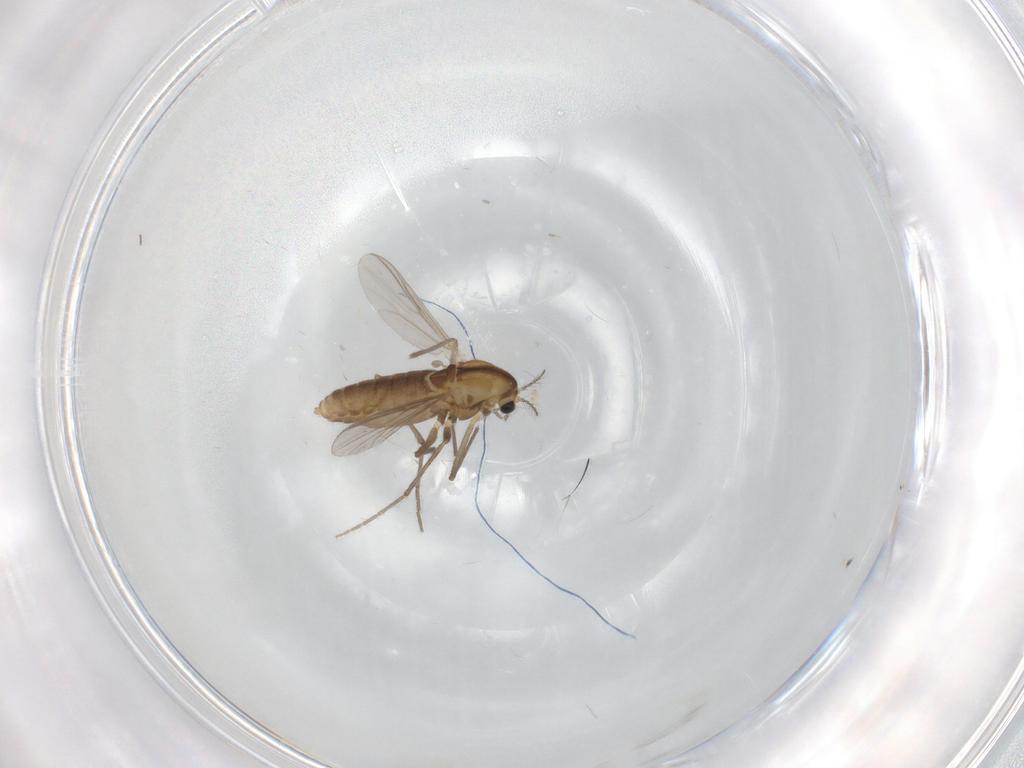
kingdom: Animalia
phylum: Arthropoda
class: Insecta
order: Diptera
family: Chironomidae
